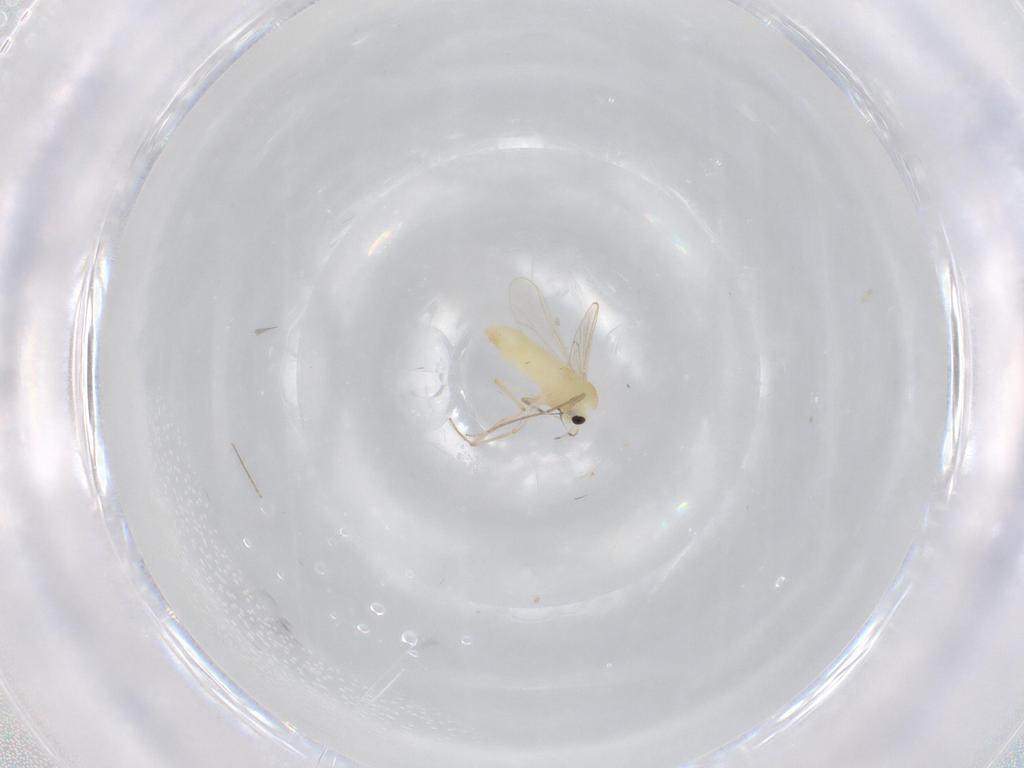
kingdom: Animalia
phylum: Arthropoda
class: Insecta
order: Diptera
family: Chironomidae
